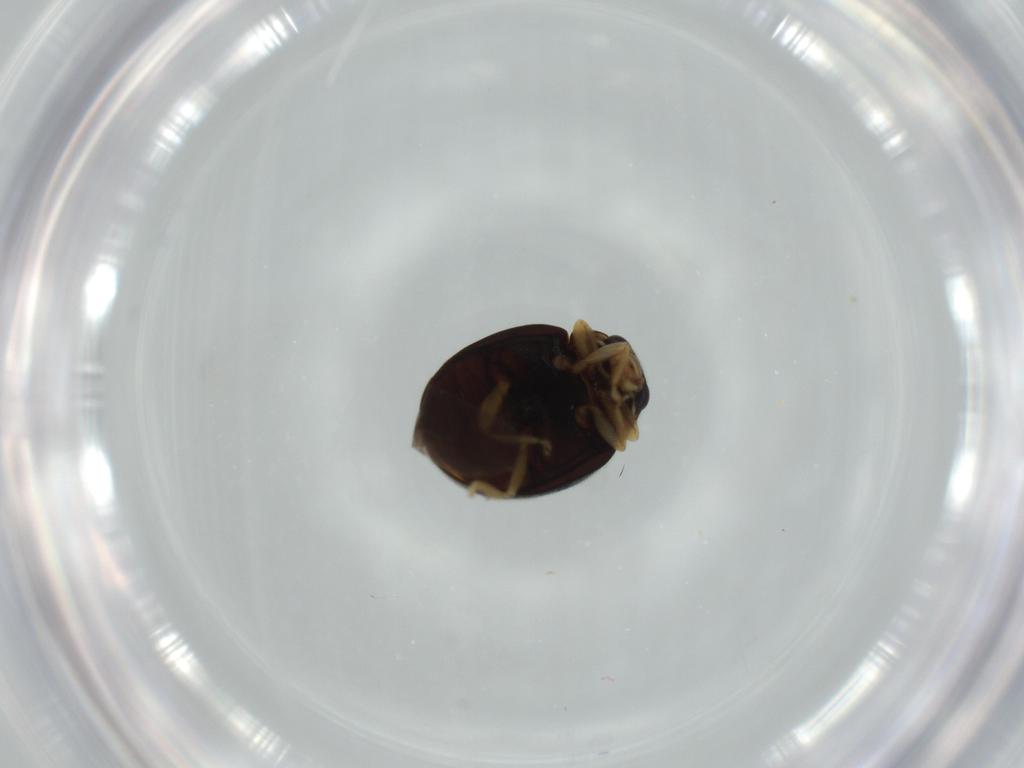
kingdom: Animalia
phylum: Arthropoda
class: Insecta
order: Coleoptera
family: Coccinellidae
